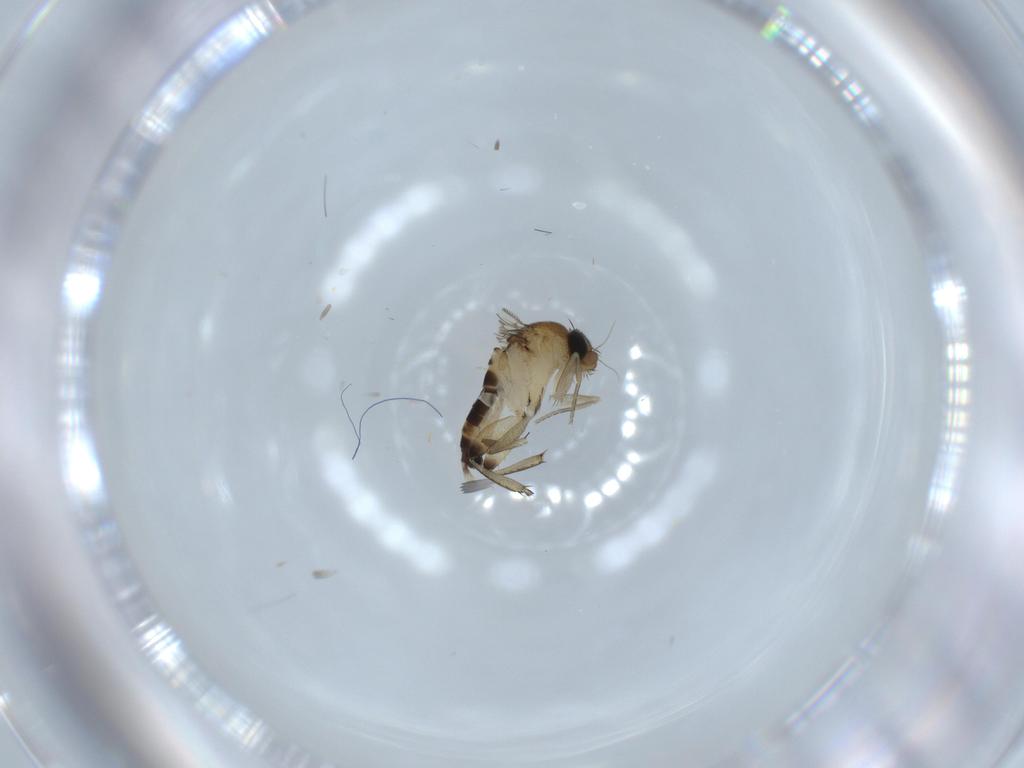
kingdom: Animalia
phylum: Arthropoda
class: Insecta
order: Diptera
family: Phoridae
